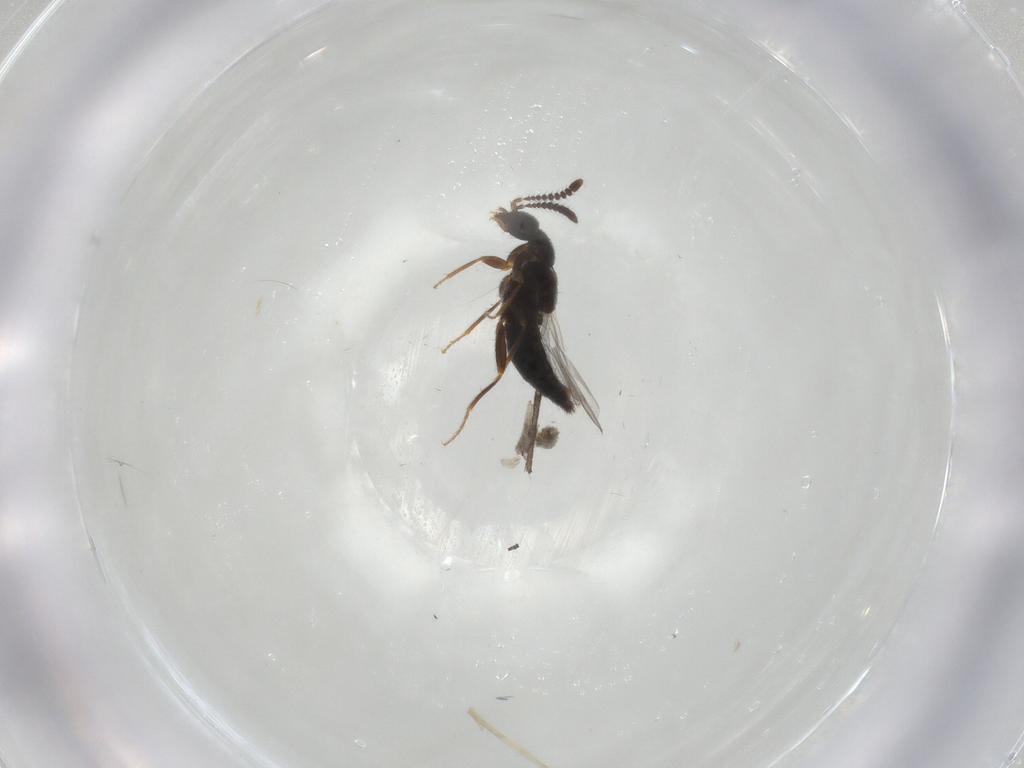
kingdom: Animalia
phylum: Arthropoda
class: Insecta
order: Coleoptera
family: Staphylinidae
